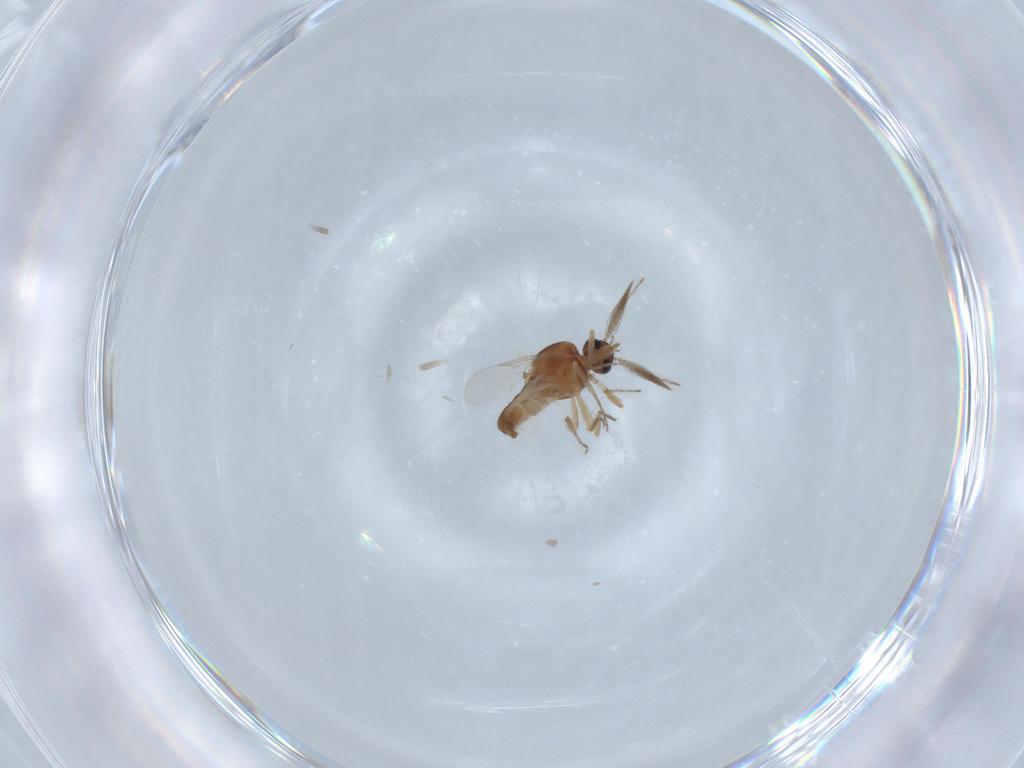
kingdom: Animalia
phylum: Arthropoda
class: Insecta
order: Diptera
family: Ceratopogonidae
